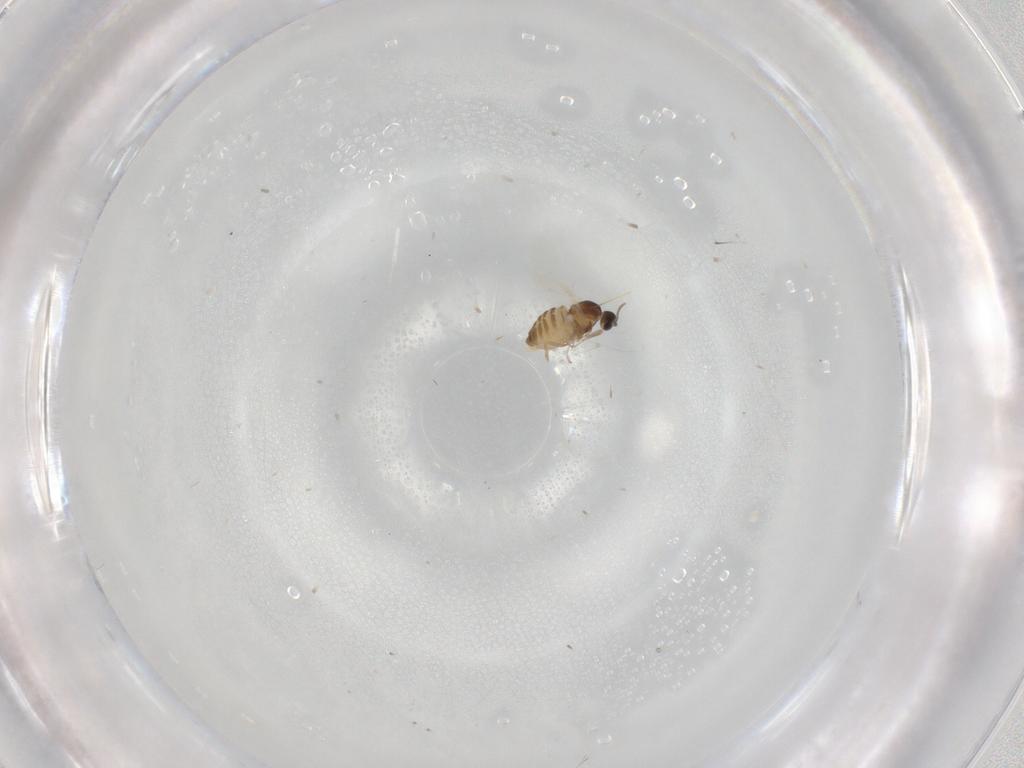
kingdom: Animalia
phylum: Arthropoda
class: Insecta
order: Diptera
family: Cecidomyiidae
